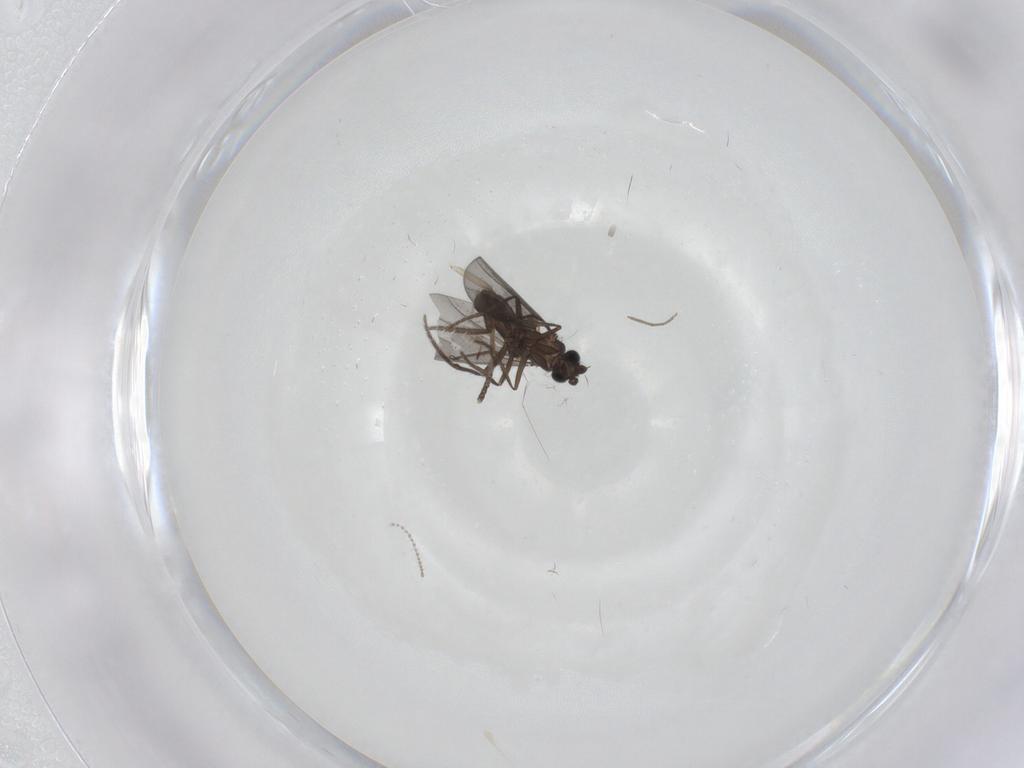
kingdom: Animalia
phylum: Arthropoda
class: Insecta
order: Diptera
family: Phoridae
